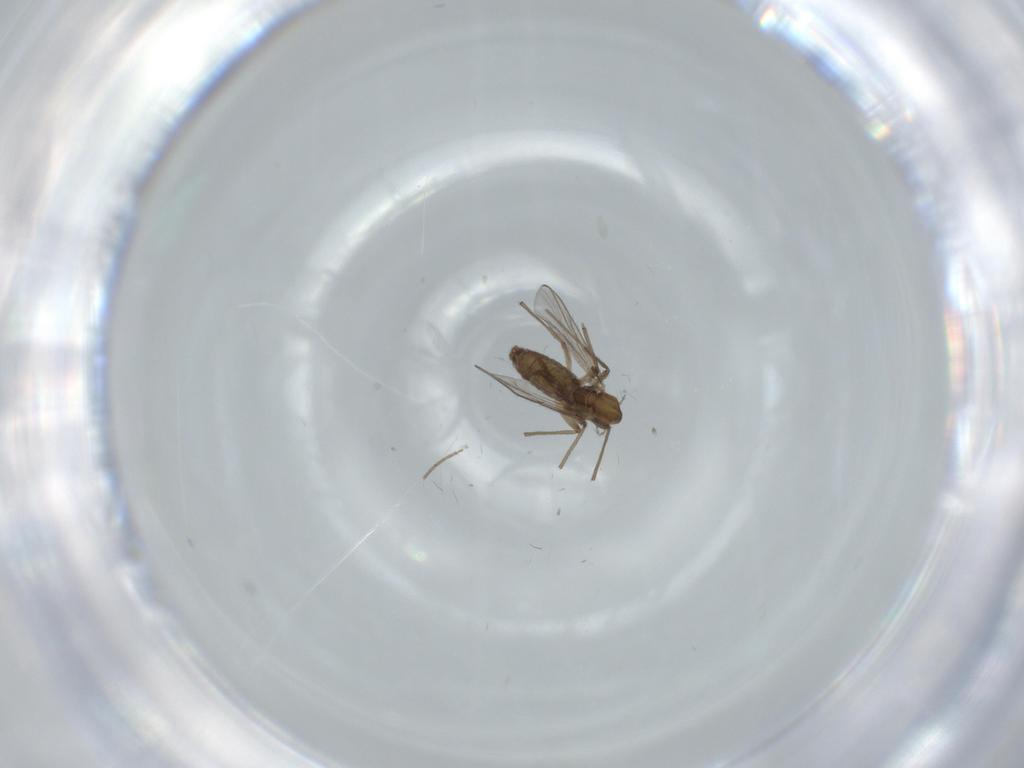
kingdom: Animalia
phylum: Arthropoda
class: Insecta
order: Diptera
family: Chironomidae
